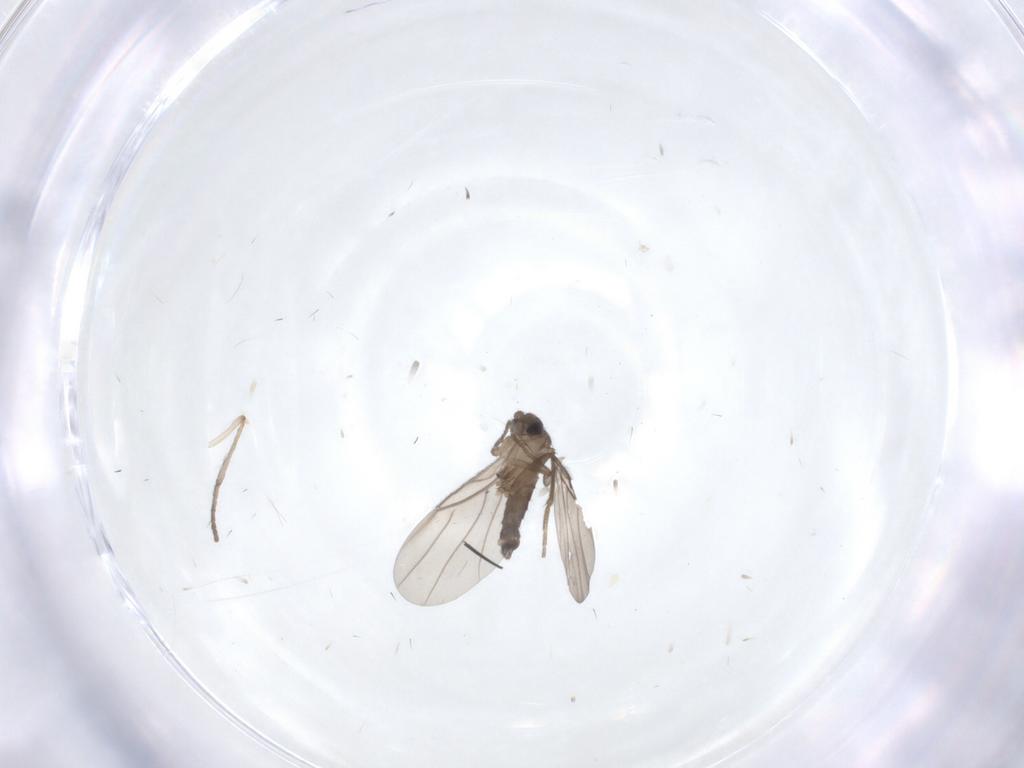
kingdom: Animalia
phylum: Arthropoda
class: Insecta
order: Diptera
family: Psychodidae
